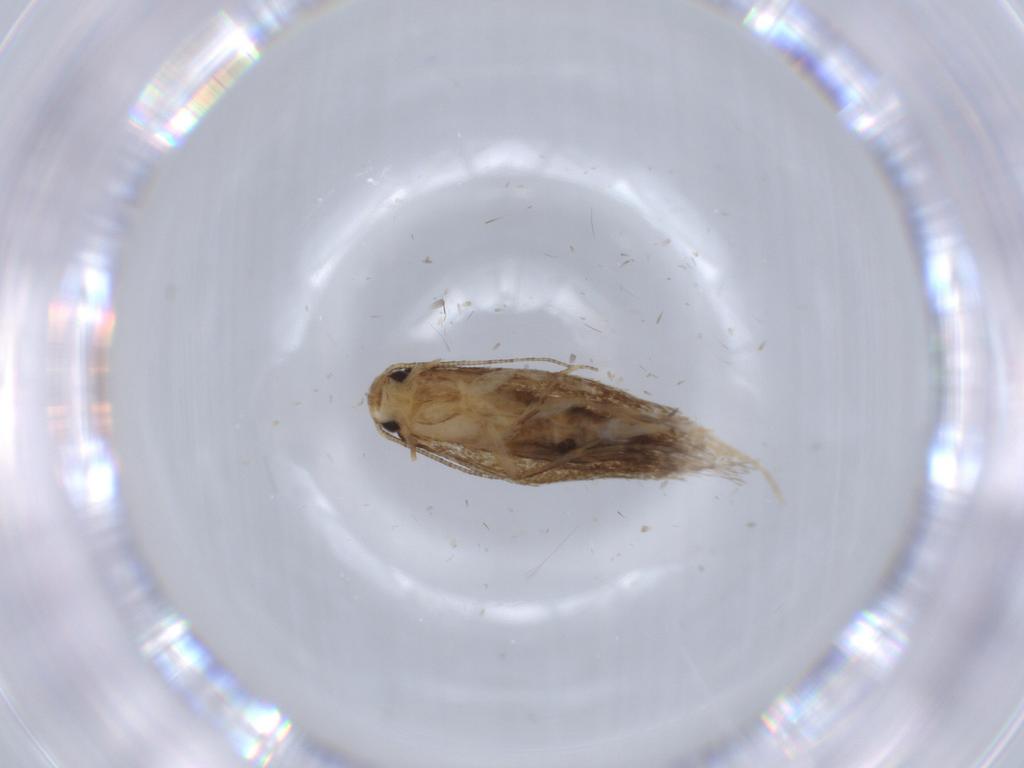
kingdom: Animalia
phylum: Arthropoda
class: Insecta
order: Lepidoptera
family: Tineidae
